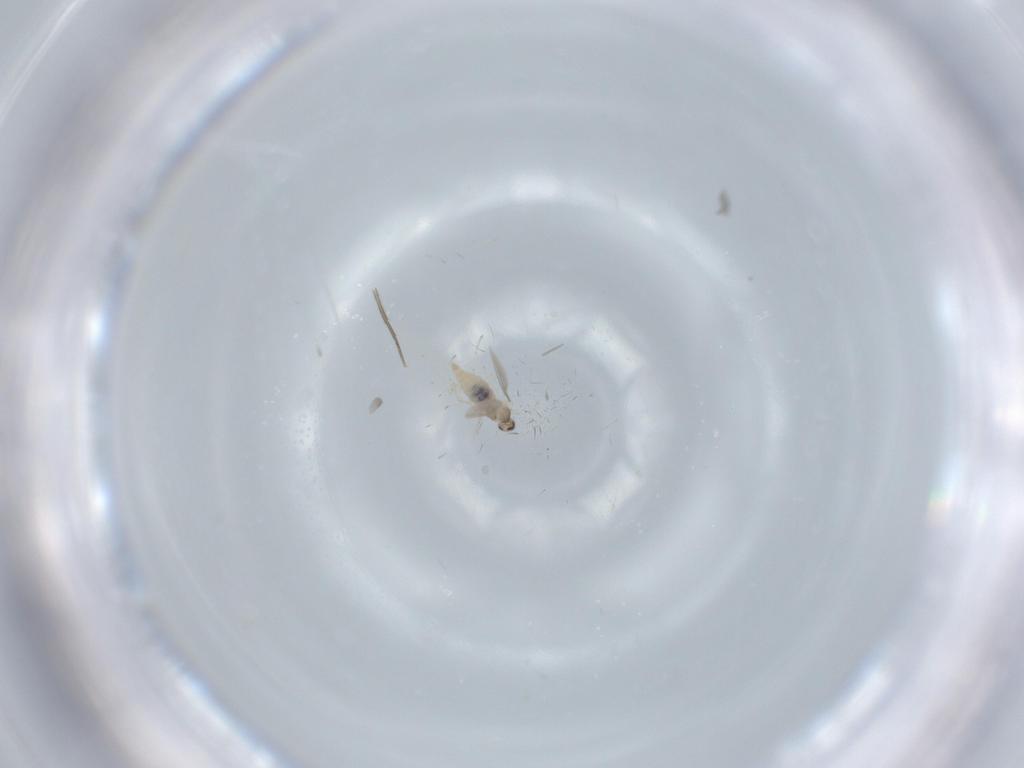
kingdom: Animalia
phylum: Arthropoda
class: Insecta
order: Diptera
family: Cecidomyiidae
